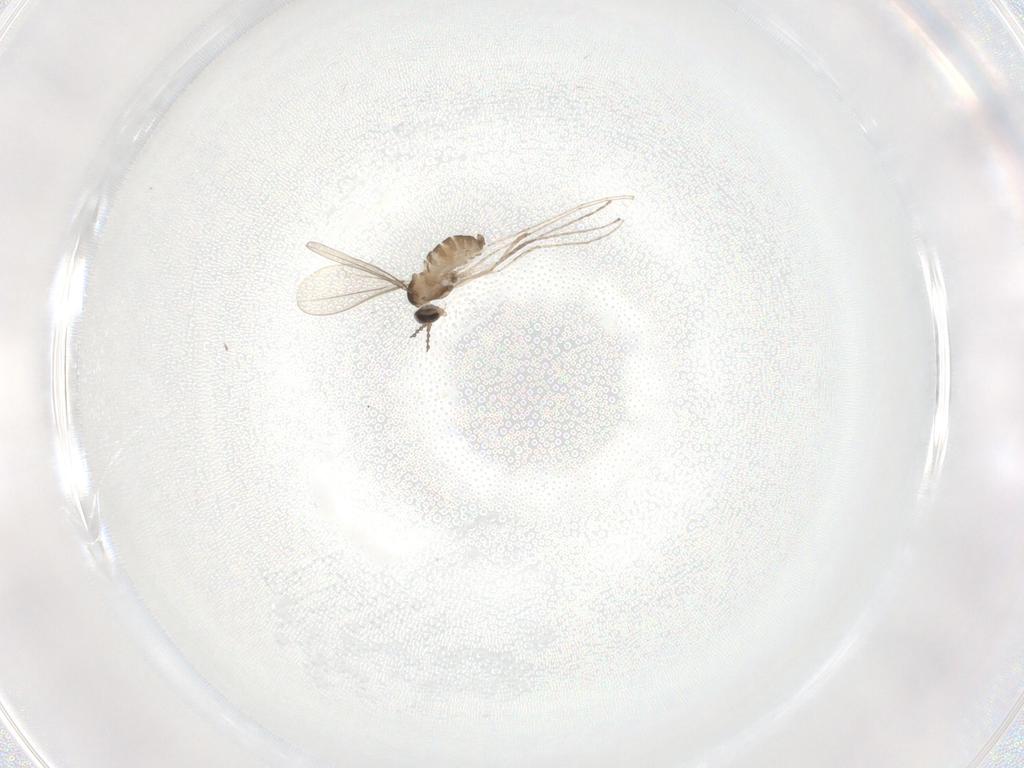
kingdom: Animalia
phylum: Arthropoda
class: Insecta
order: Diptera
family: Cecidomyiidae
